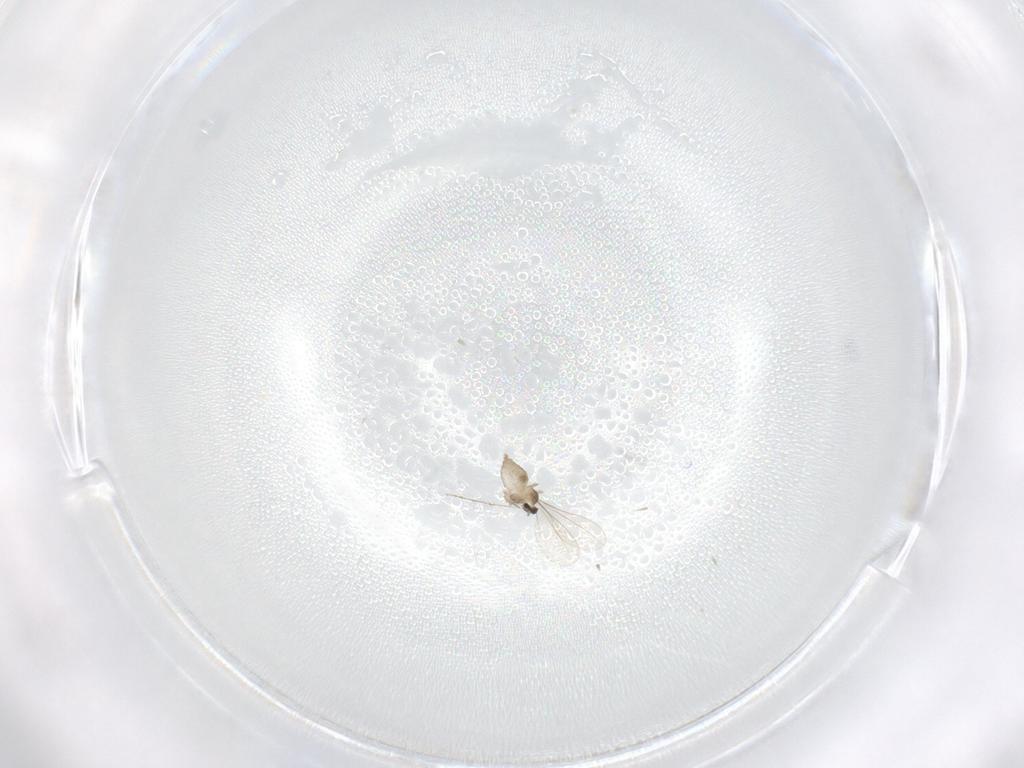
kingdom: Animalia
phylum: Arthropoda
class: Insecta
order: Diptera
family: Cecidomyiidae
